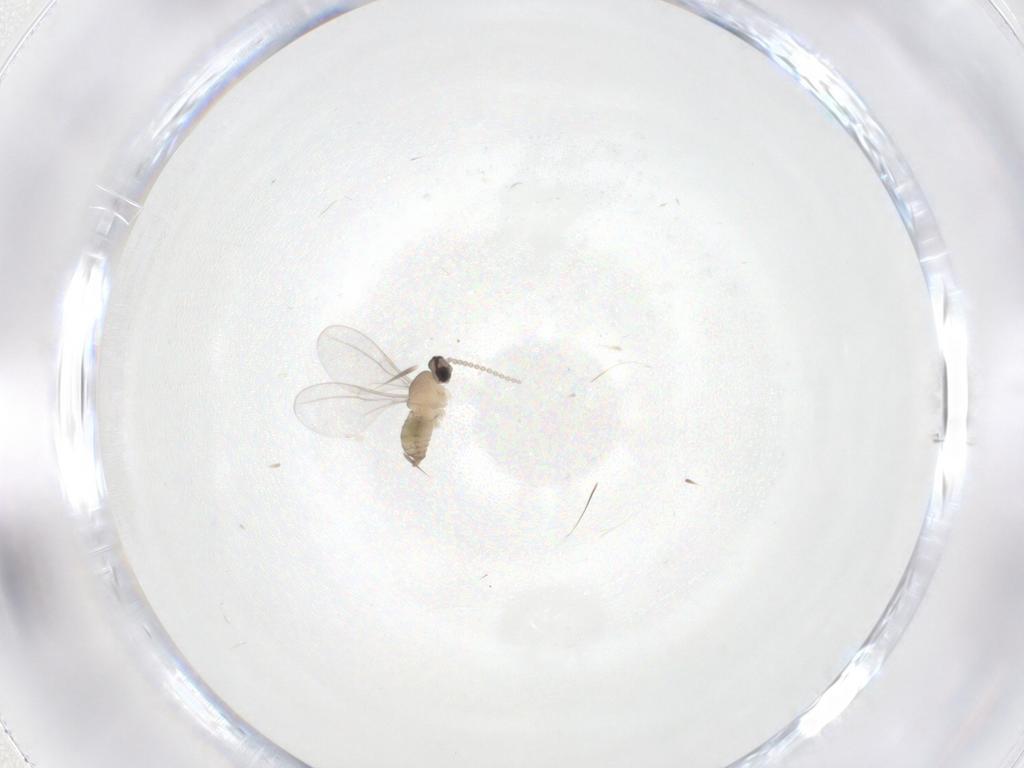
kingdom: Animalia
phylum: Arthropoda
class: Insecta
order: Diptera
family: Cecidomyiidae
